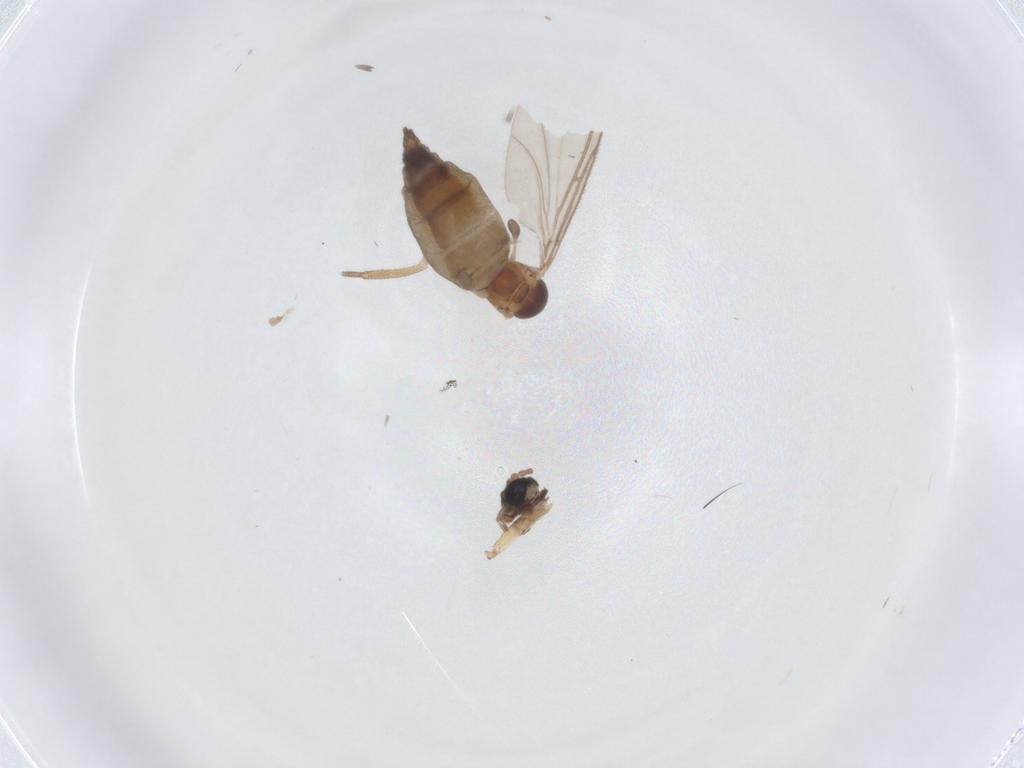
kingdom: Animalia
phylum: Arthropoda
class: Insecta
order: Diptera
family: Sciaridae
